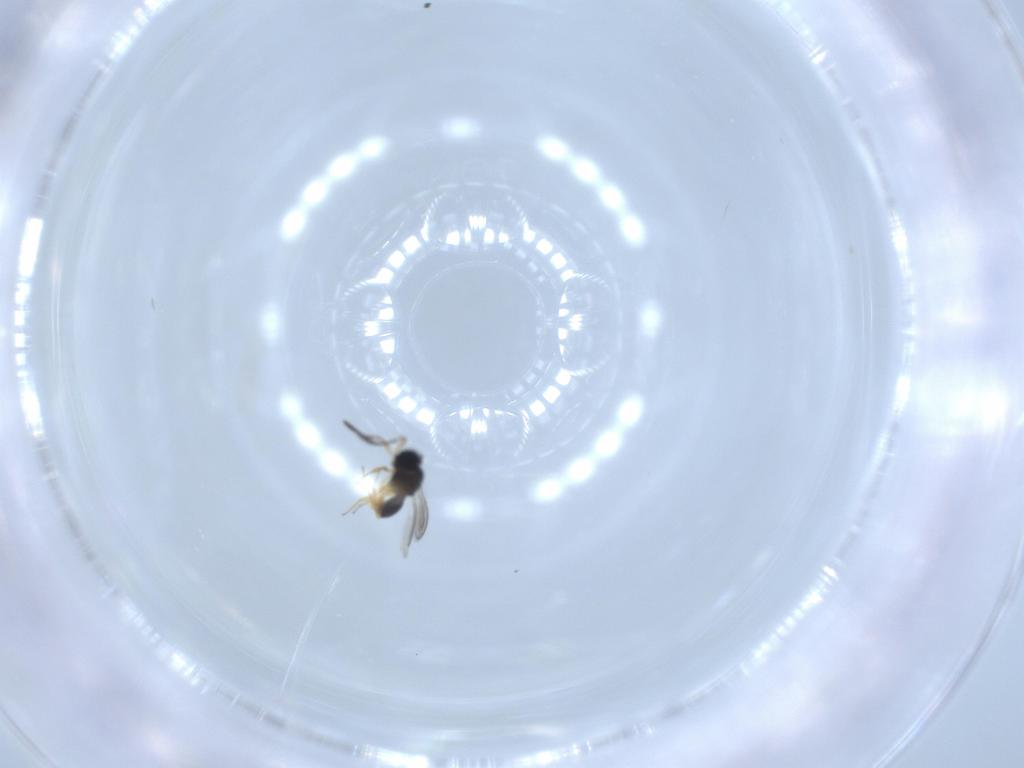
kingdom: Animalia
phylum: Arthropoda
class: Insecta
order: Hymenoptera
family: Scelionidae
